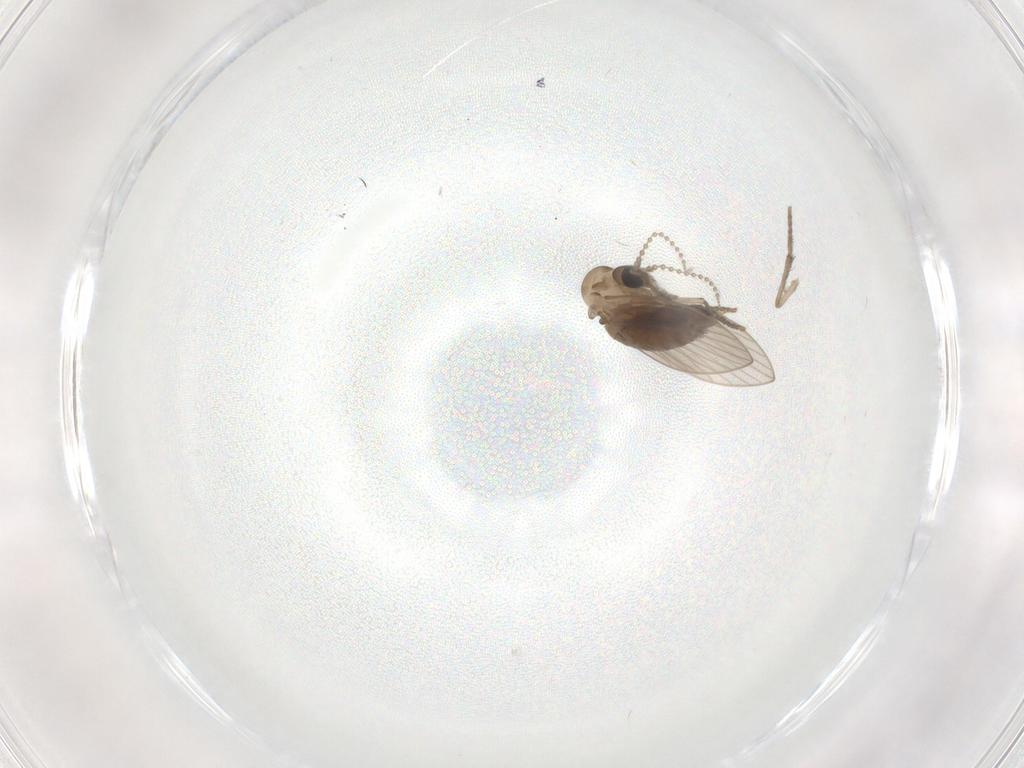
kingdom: Animalia
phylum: Arthropoda
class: Insecta
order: Diptera
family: Psychodidae
